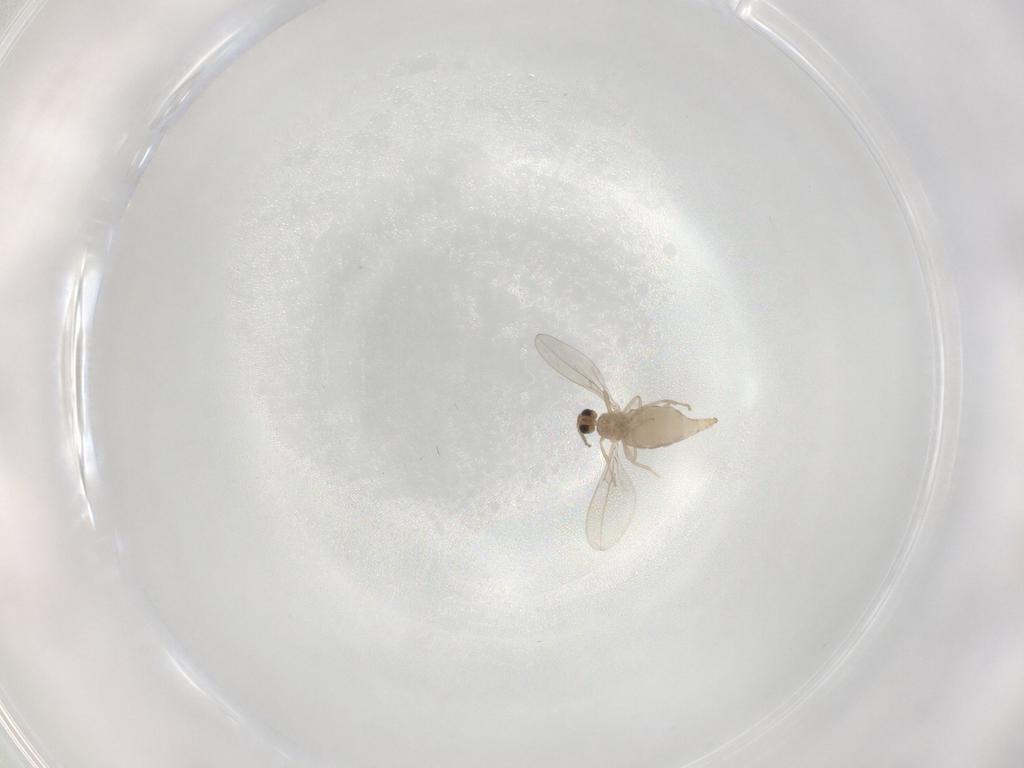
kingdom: Animalia
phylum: Arthropoda
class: Insecta
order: Diptera
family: Cecidomyiidae
